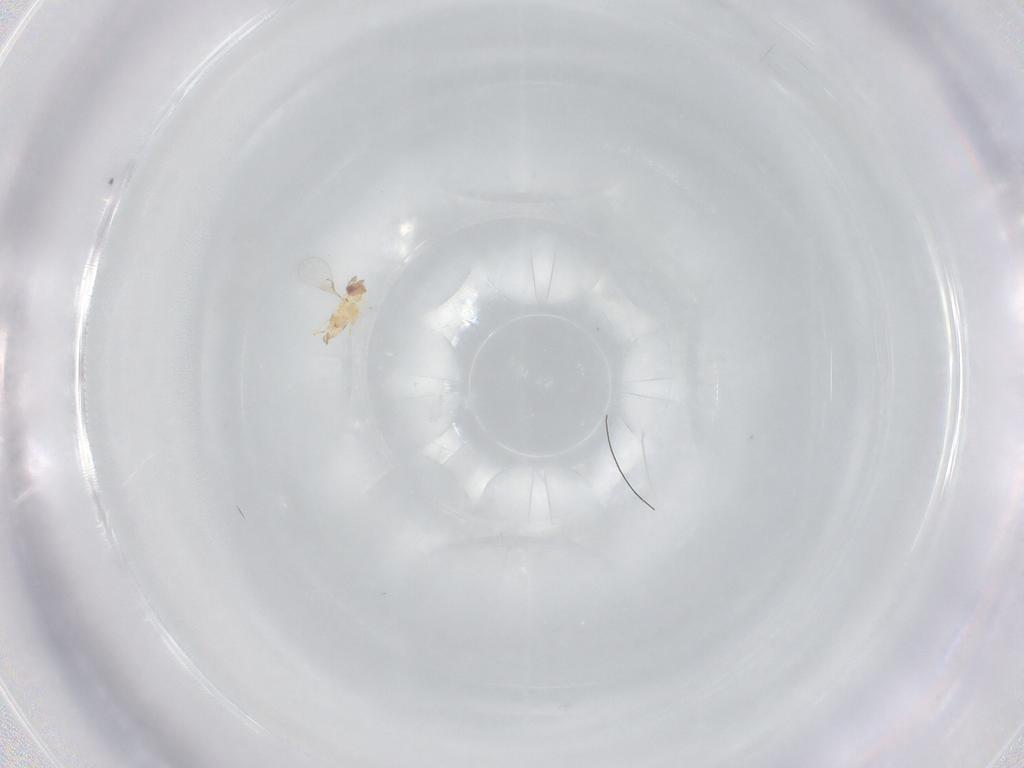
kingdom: Animalia
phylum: Arthropoda
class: Insecta
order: Hymenoptera
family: Trichogrammatidae
